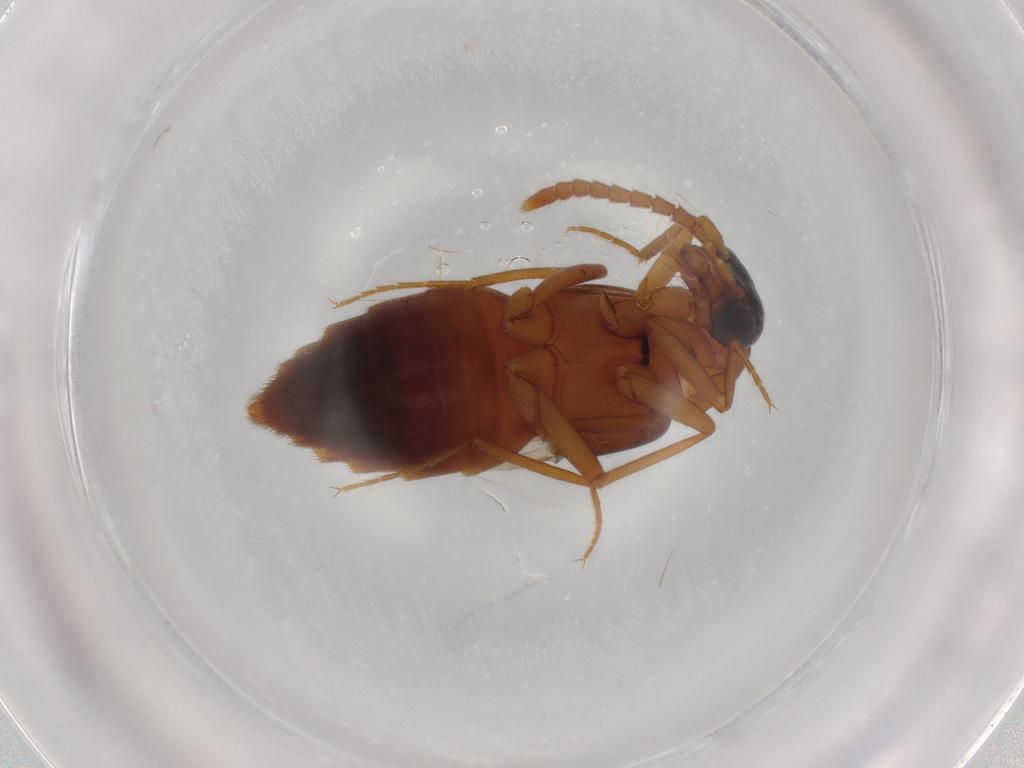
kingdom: Animalia
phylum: Arthropoda
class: Insecta
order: Coleoptera
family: Staphylinidae
